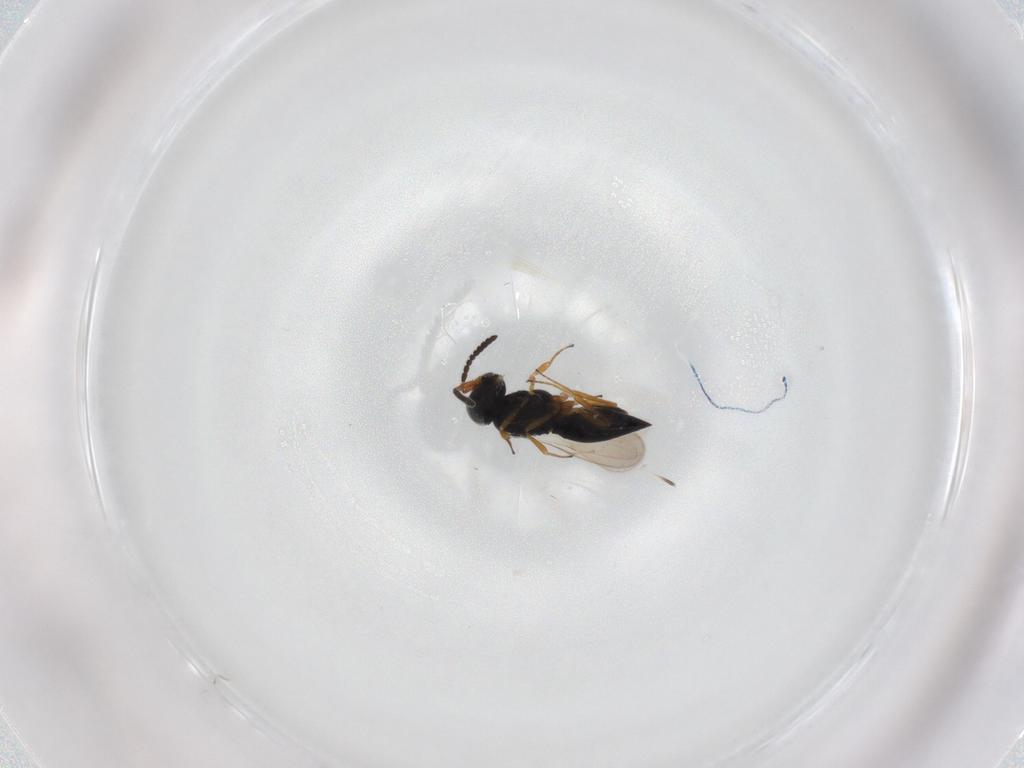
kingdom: Animalia
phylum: Arthropoda
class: Insecta
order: Hymenoptera
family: Scelionidae
